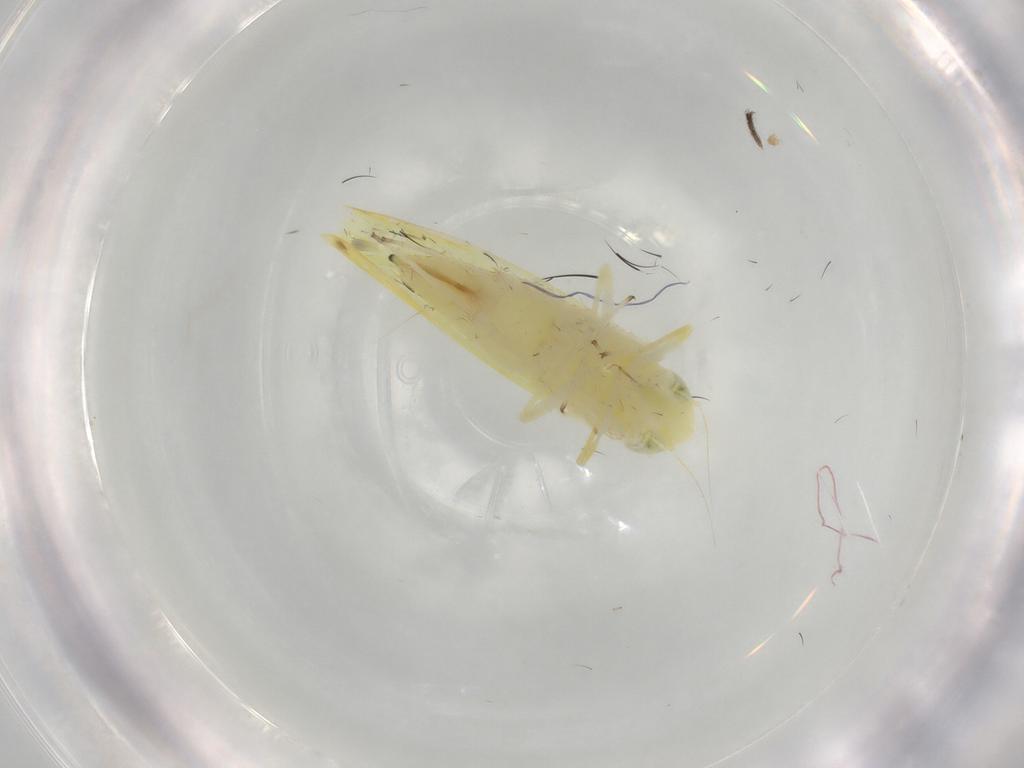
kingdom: Animalia
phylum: Arthropoda
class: Insecta
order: Hemiptera
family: Cicadellidae
